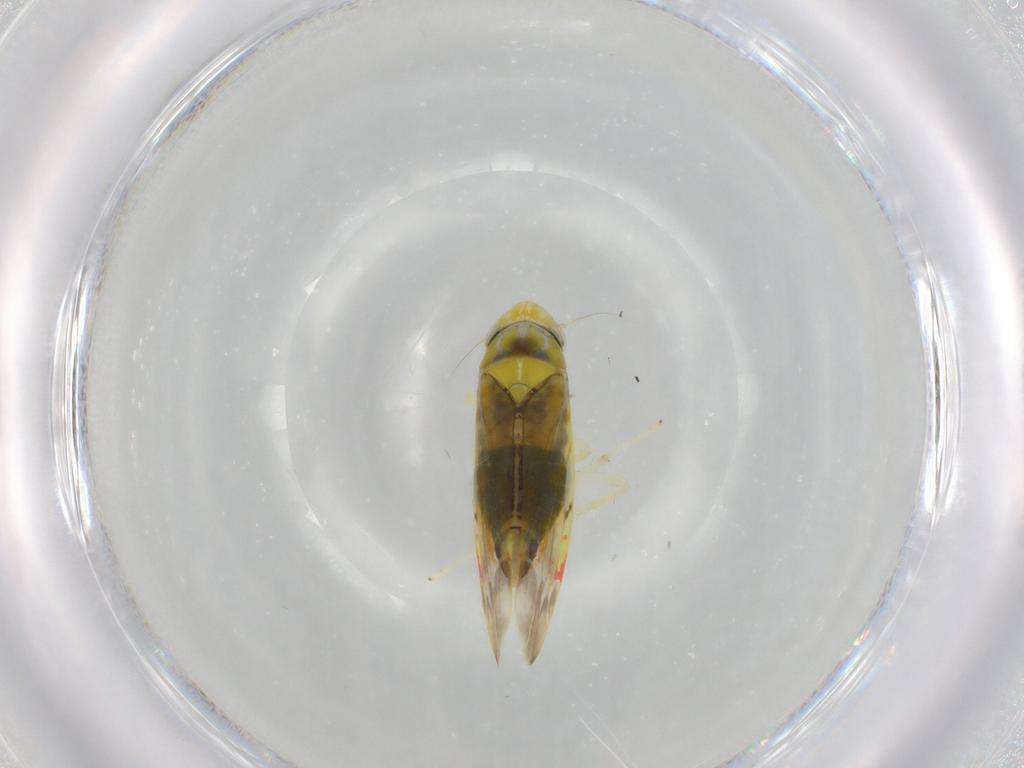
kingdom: Animalia
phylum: Arthropoda
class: Insecta
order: Hemiptera
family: Cicadellidae
